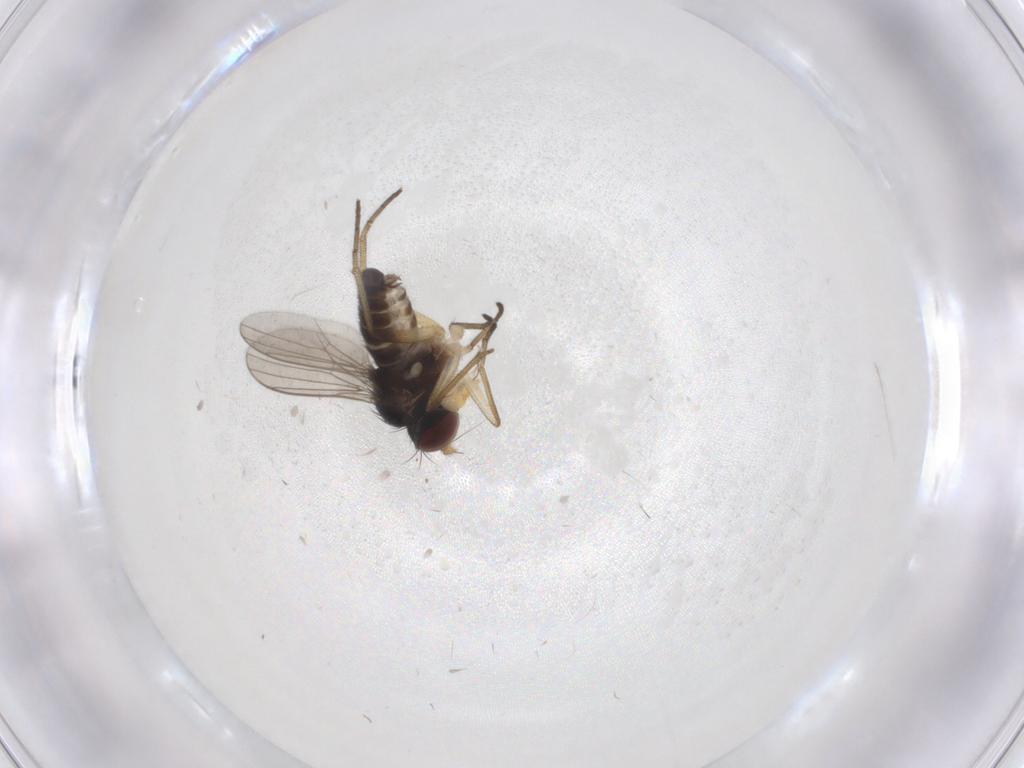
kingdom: Animalia
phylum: Arthropoda
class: Insecta
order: Diptera
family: Dolichopodidae
